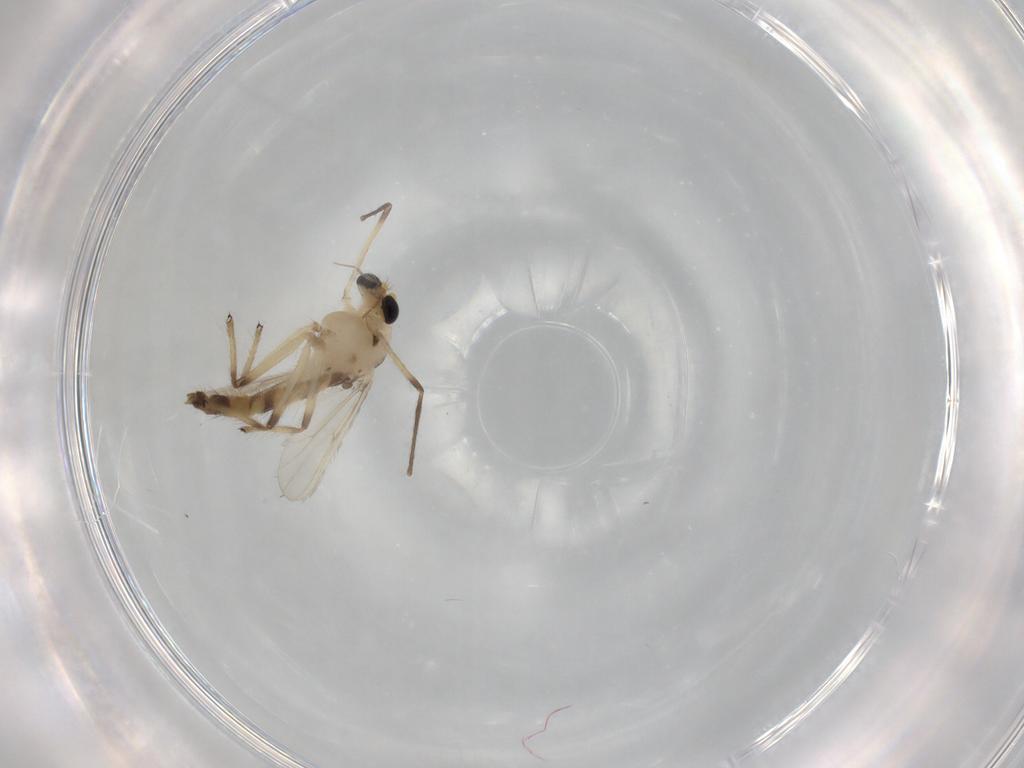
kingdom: Animalia
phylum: Arthropoda
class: Insecta
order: Diptera
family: Chironomidae
